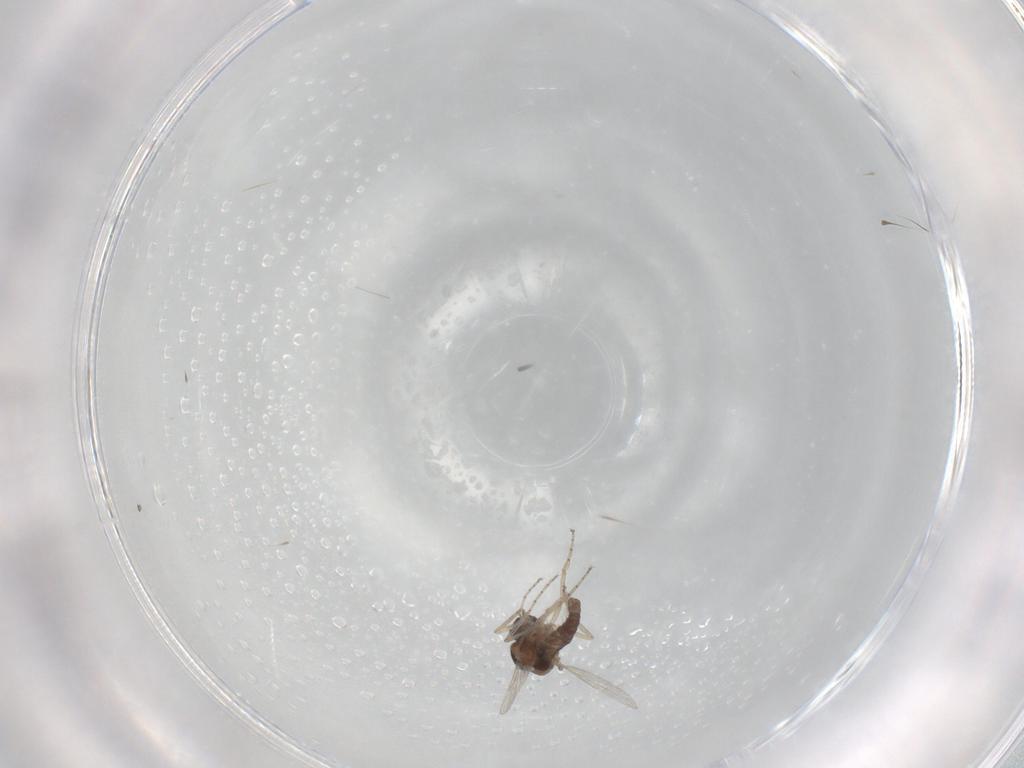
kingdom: Animalia
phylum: Arthropoda
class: Insecta
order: Diptera
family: Ceratopogonidae
